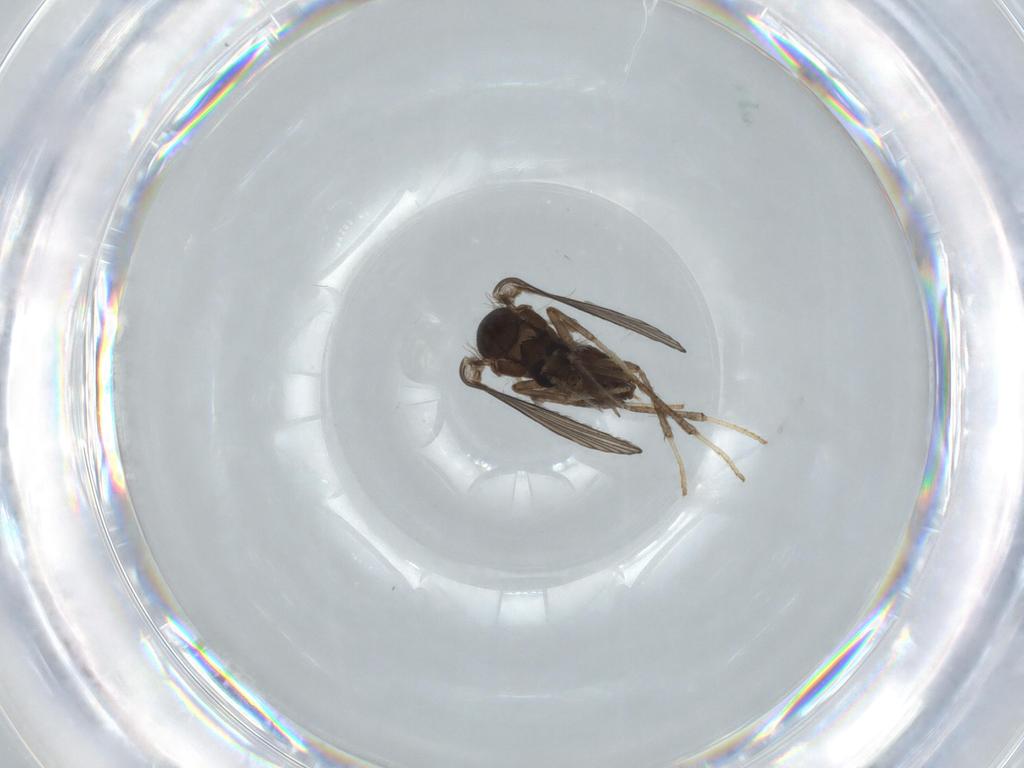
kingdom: Animalia
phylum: Arthropoda
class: Insecta
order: Diptera
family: Psychodidae
